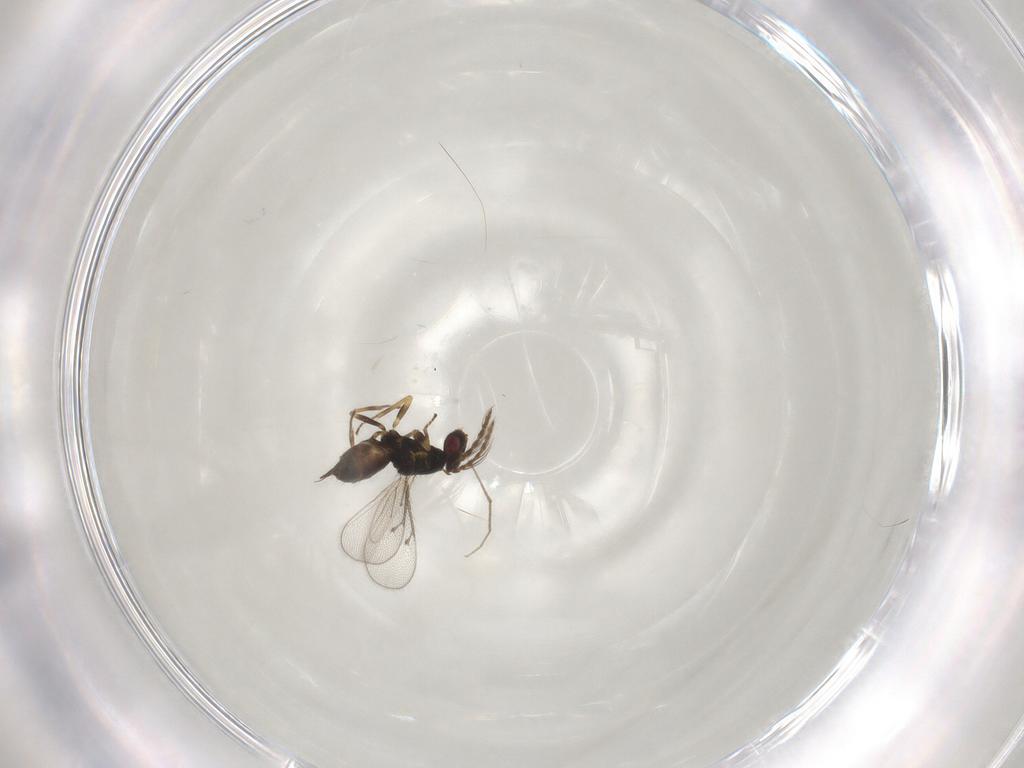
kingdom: Animalia
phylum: Arthropoda
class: Insecta
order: Hymenoptera
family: Eulophidae
